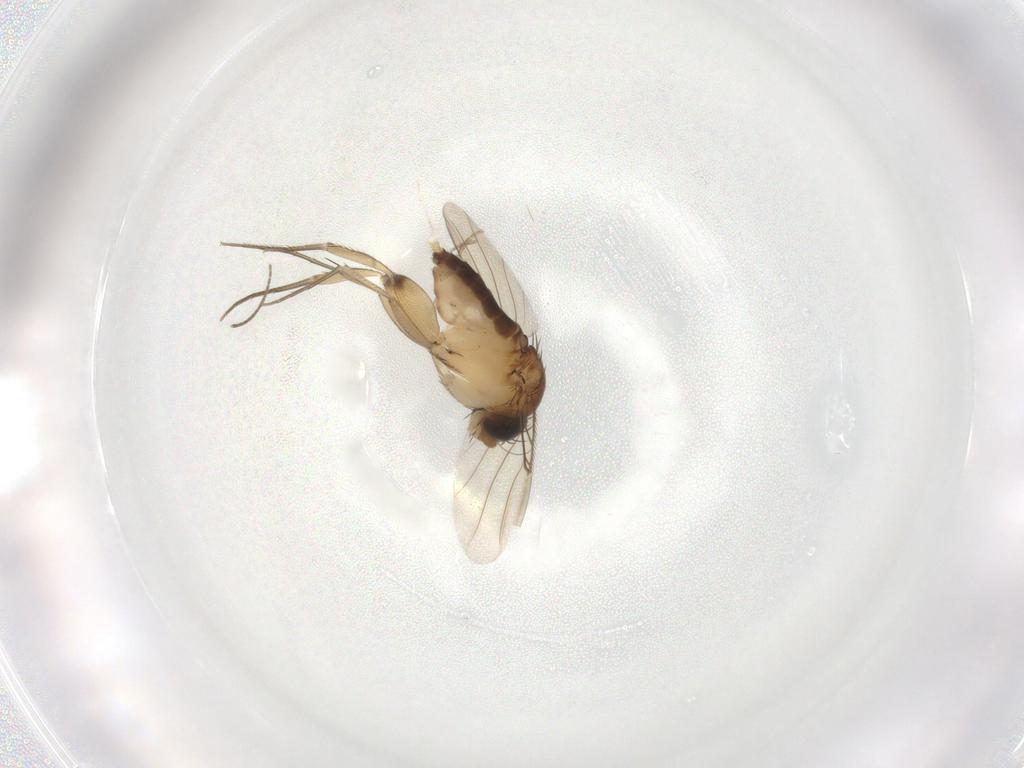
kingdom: Animalia
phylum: Arthropoda
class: Insecta
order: Diptera
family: Phoridae
